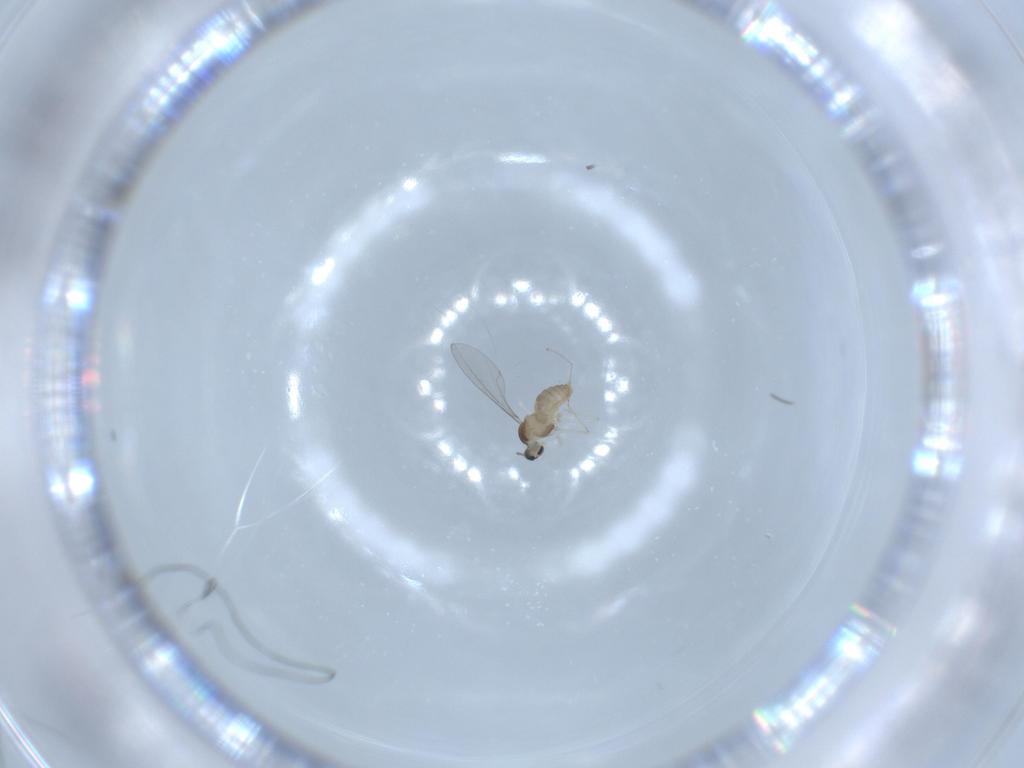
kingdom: Animalia
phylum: Arthropoda
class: Insecta
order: Diptera
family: Cecidomyiidae
